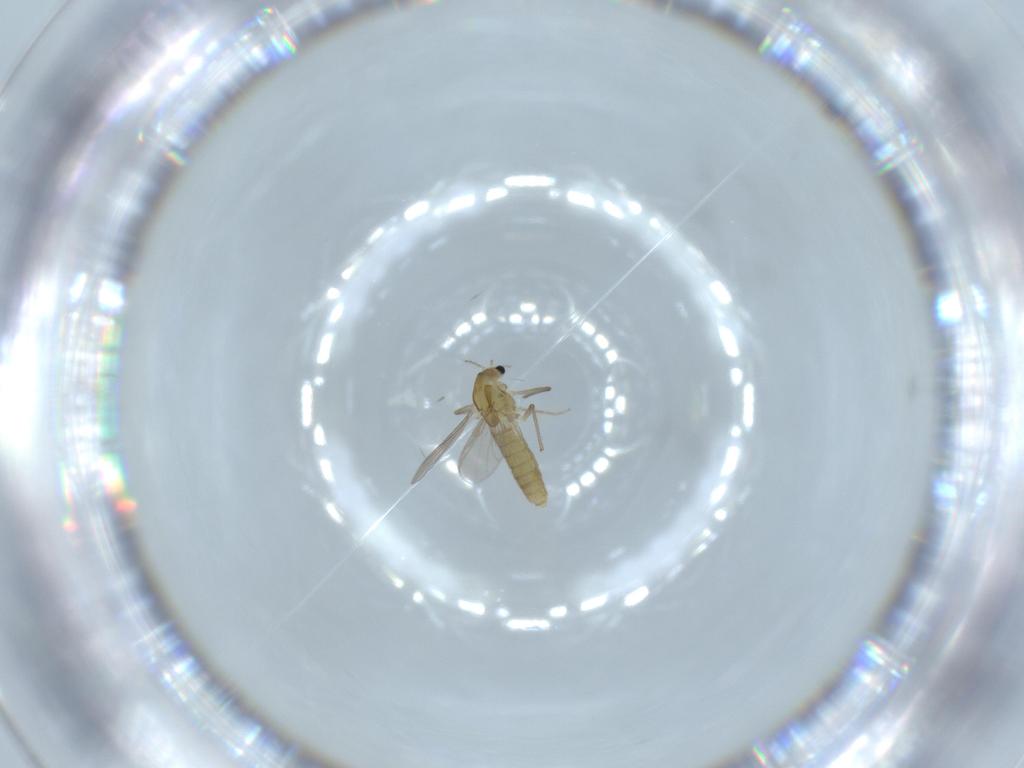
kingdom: Animalia
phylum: Arthropoda
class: Insecta
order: Diptera
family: Chironomidae
